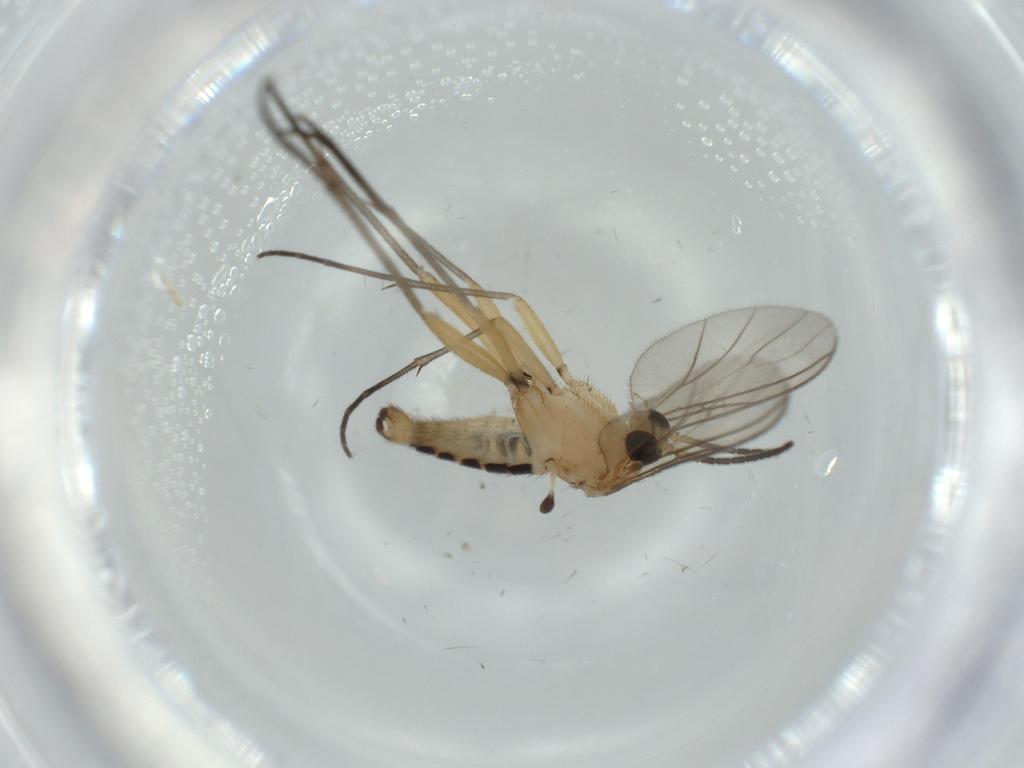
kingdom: Animalia
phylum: Arthropoda
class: Insecta
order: Diptera
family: Sciaridae
